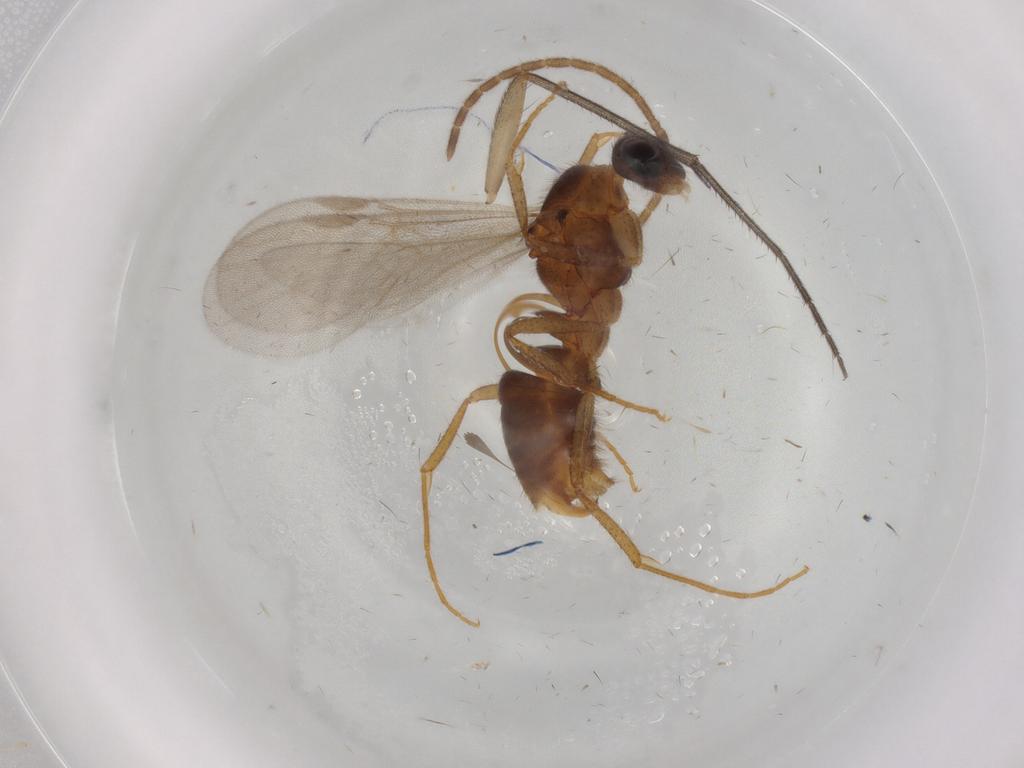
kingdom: Animalia
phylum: Arthropoda
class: Insecta
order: Hymenoptera
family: Formicidae
